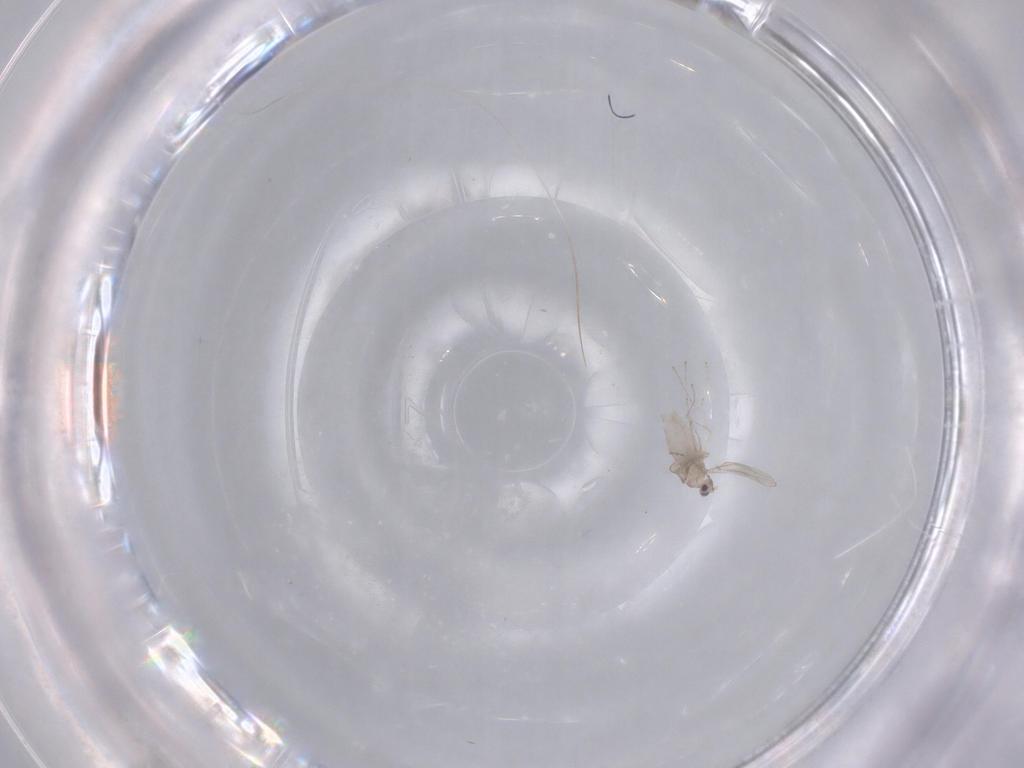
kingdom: Animalia
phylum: Arthropoda
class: Insecta
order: Diptera
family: Cecidomyiidae
